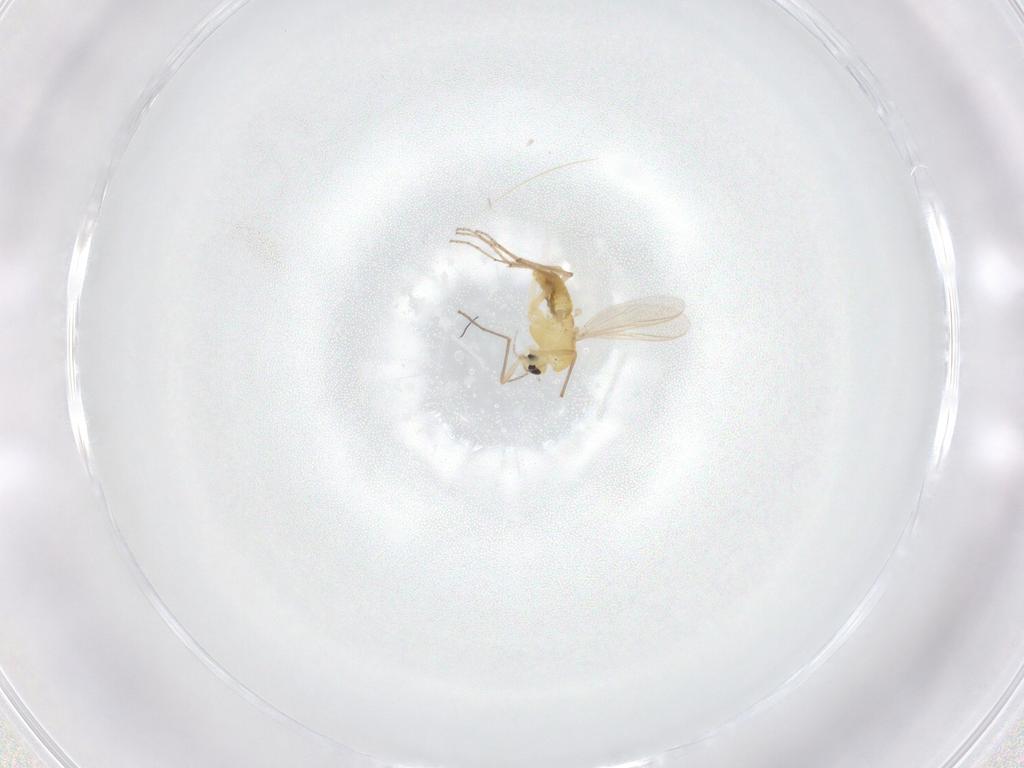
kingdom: Animalia
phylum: Arthropoda
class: Insecta
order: Diptera
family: Chironomidae
